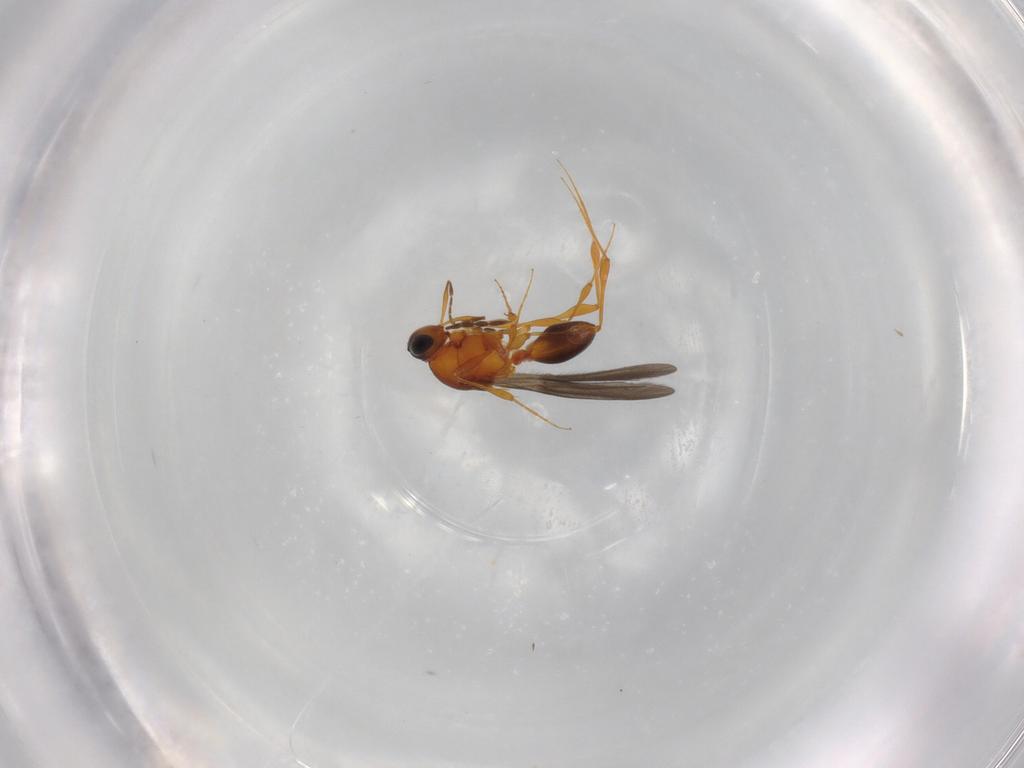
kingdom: Animalia
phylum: Arthropoda
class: Insecta
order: Hymenoptera
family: Platygastridae
